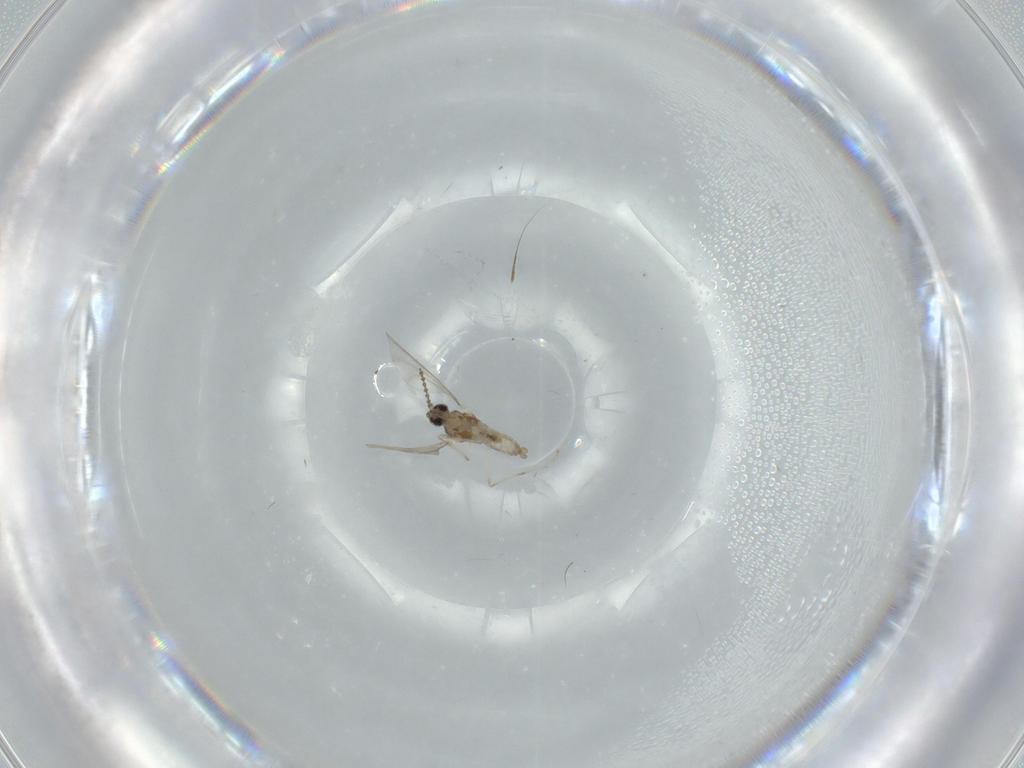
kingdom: Animalia
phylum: Arthropoda
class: Insecta
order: Diptera
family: Cecidomyiidae
